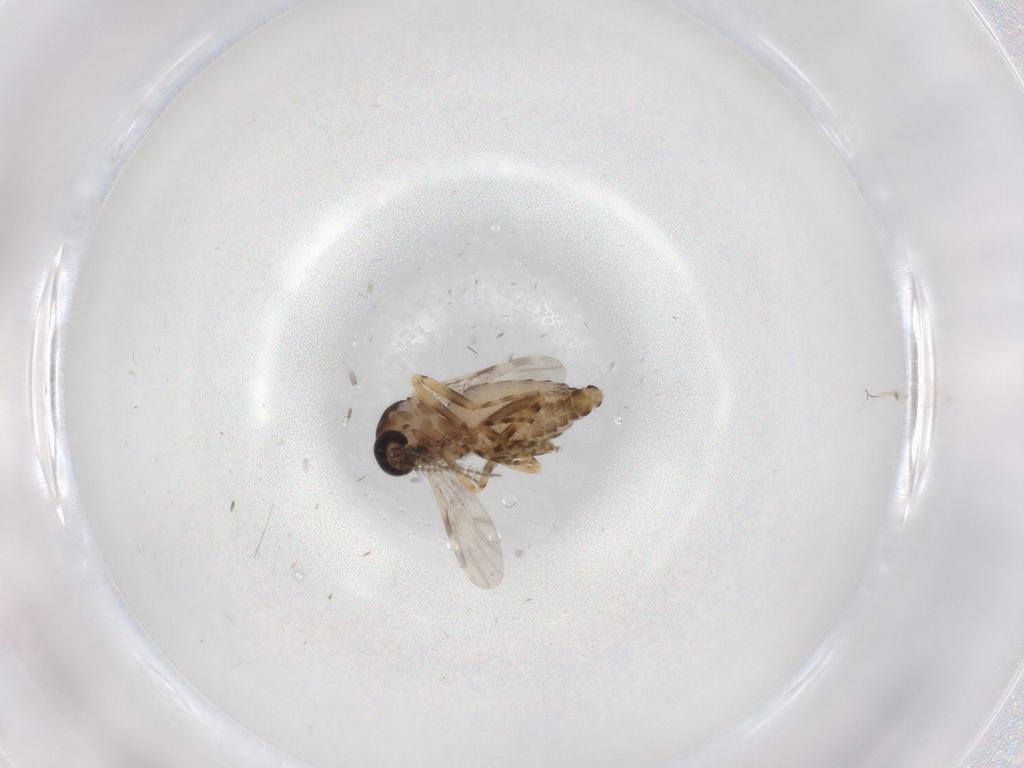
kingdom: Animalia
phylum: Arthropoda
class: Insecta
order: Diptera
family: Ceratopogonidae
